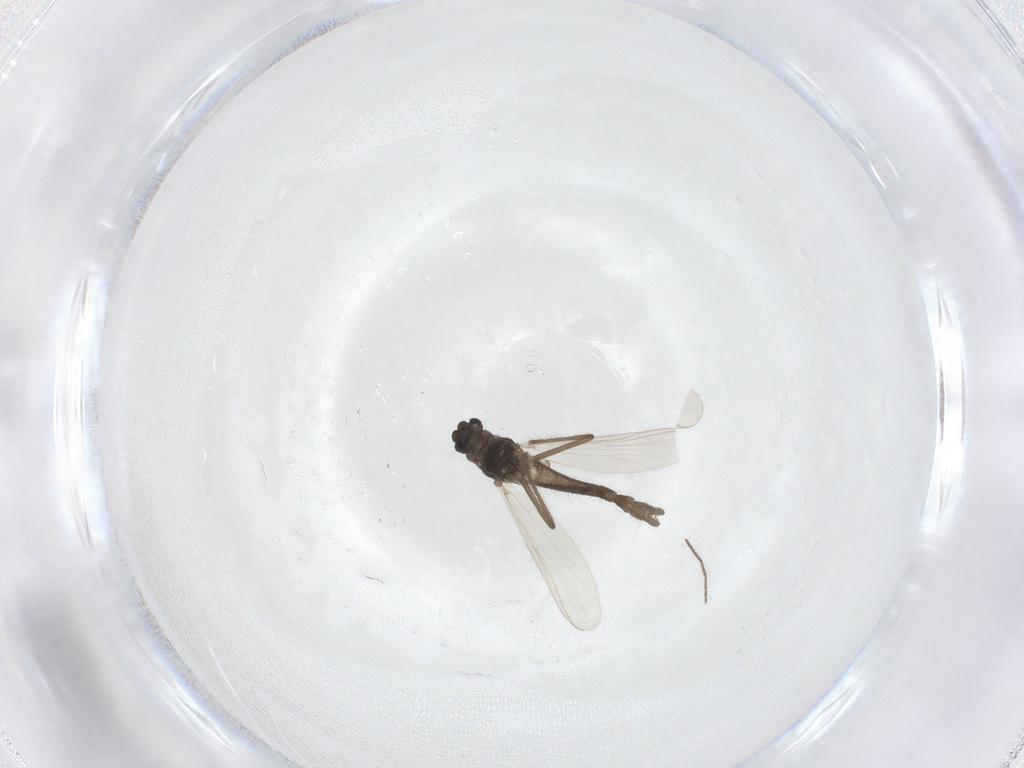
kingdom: Animalia
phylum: Arthropoda
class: Insecta
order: Diptera
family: Chironomidae
